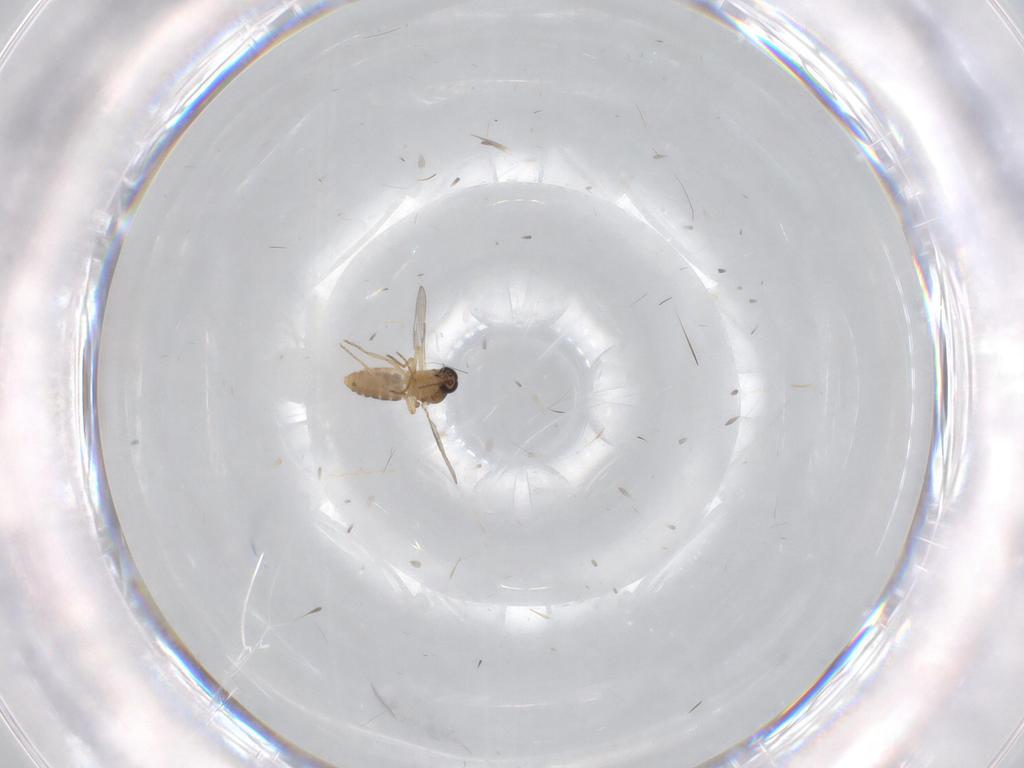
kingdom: Animalia
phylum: Arthropoda
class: Insecta
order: Diptera
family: Ceratopogonidae
